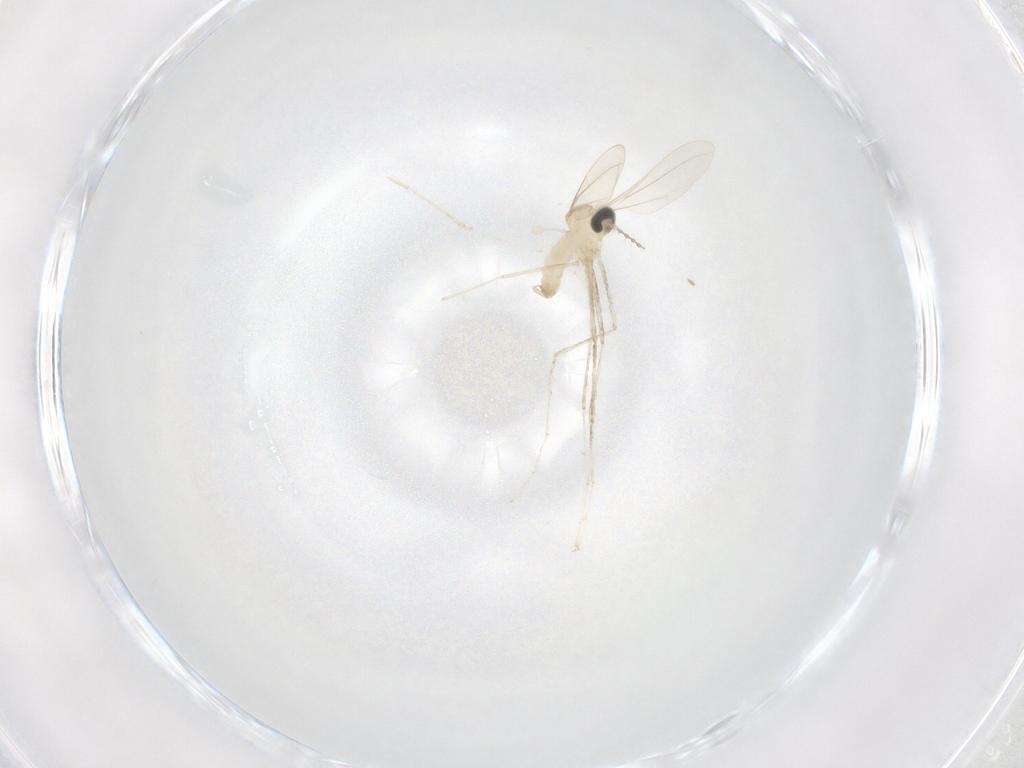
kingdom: Animalia
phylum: Arthropoda
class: Insecta
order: Diptera
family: Cecidomyiidae
